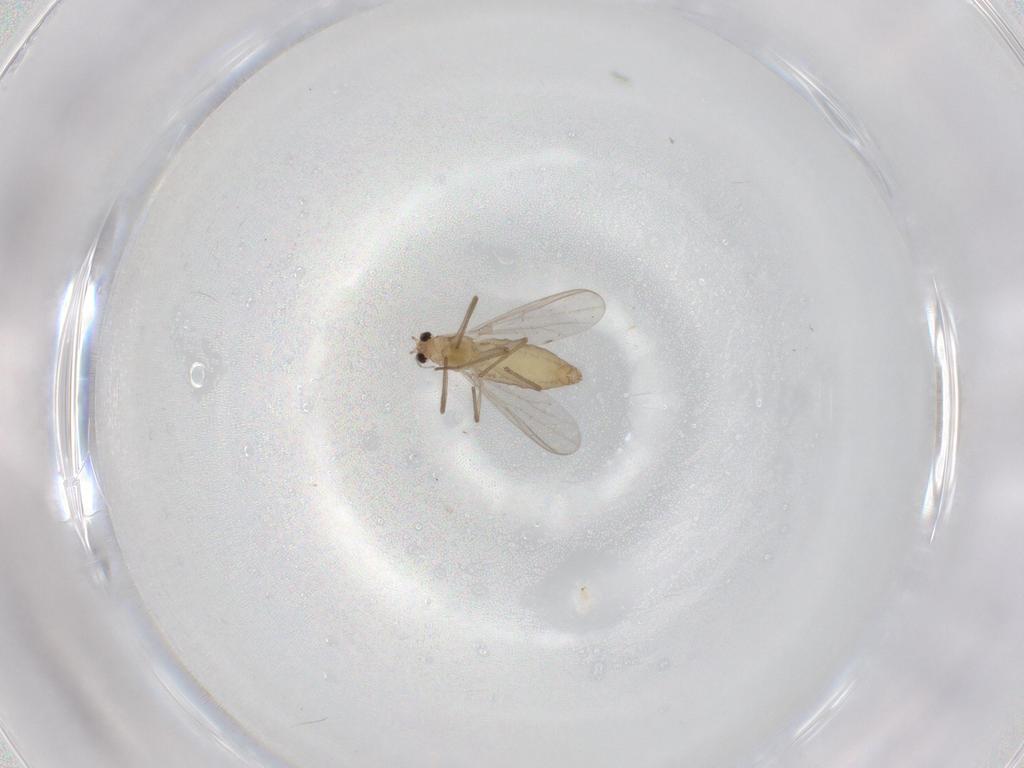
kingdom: Animalia
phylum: Arthropoda
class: Insecta
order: Diptera
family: Chironomidae
